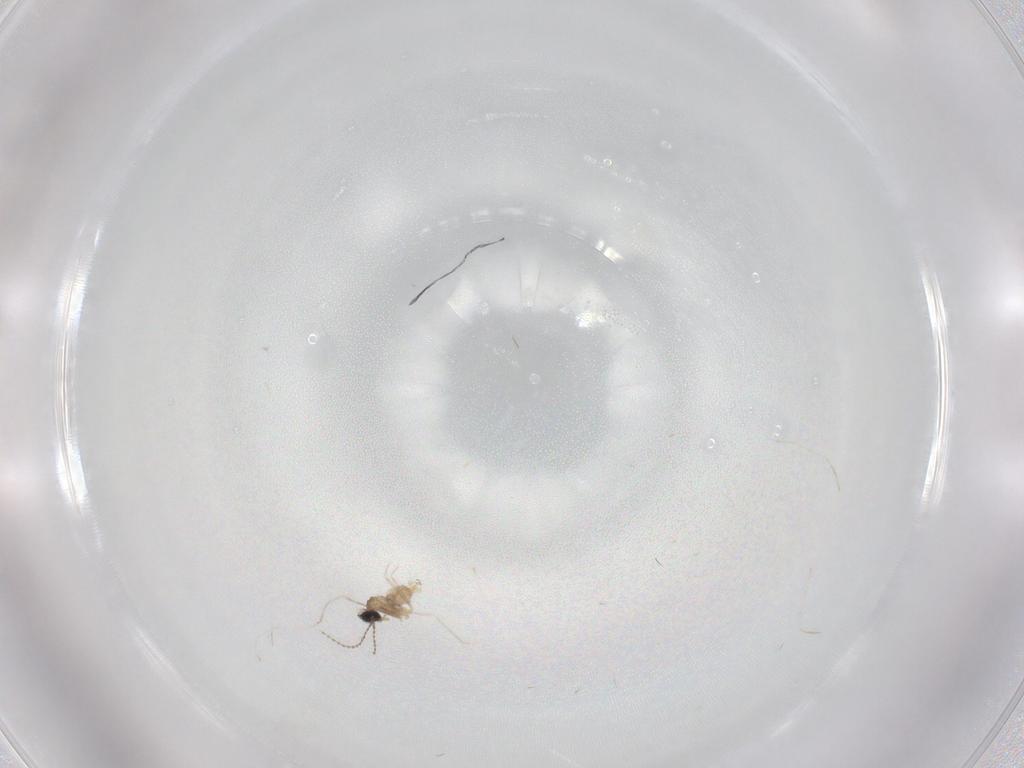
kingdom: Animalia
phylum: Arthropoda
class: Insecta
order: Diptera
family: Cecidomyiidae
